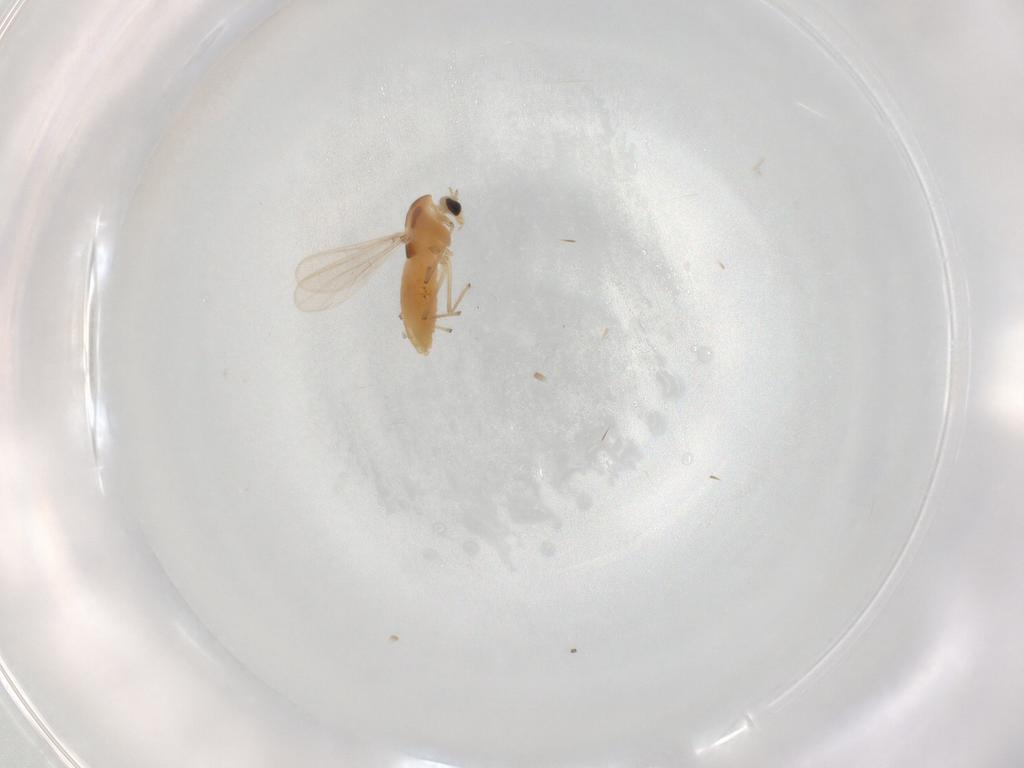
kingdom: Animalia
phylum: Arthropoda
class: Insecta
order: Diptera
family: Chironomidae
